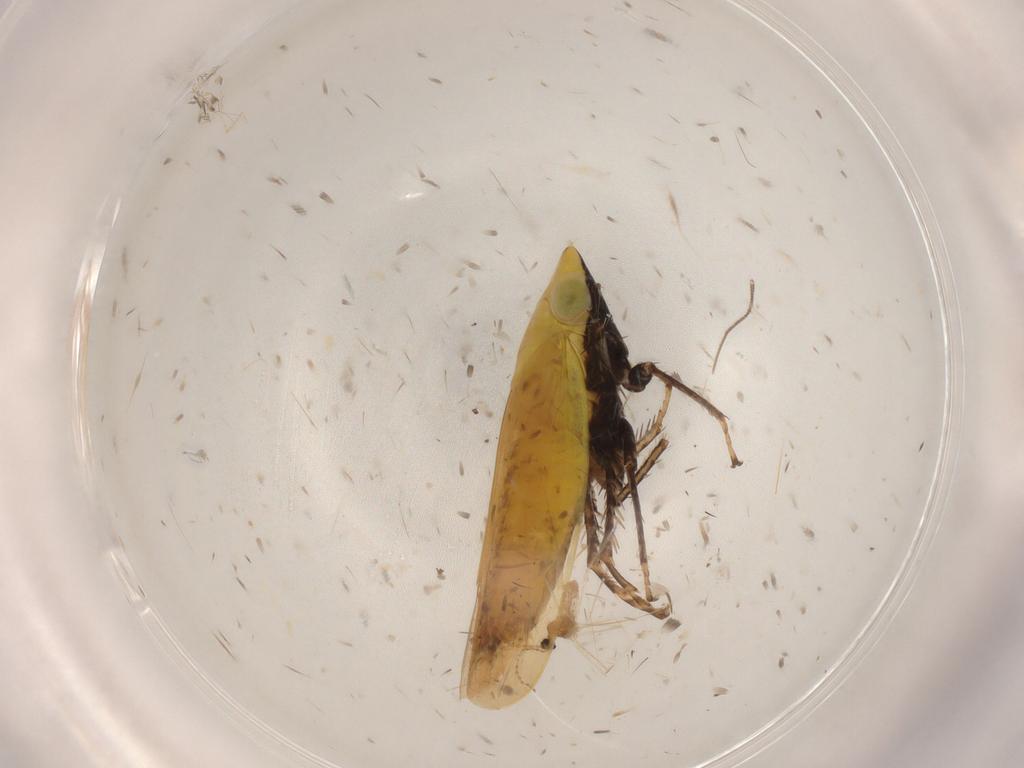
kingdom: Animalia
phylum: Arthropoda
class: Insecta
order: Hemiptera
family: Cicadellidae
